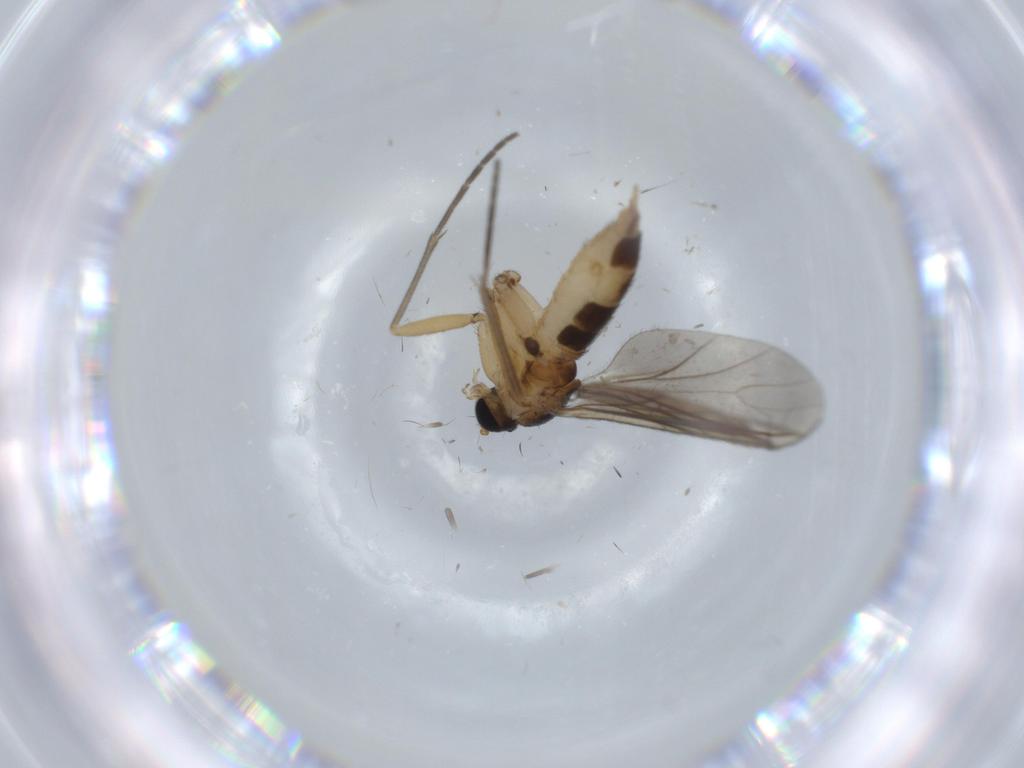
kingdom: Animalia
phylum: Arthropoda
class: Insecta
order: Diptera
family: Sciaridae
